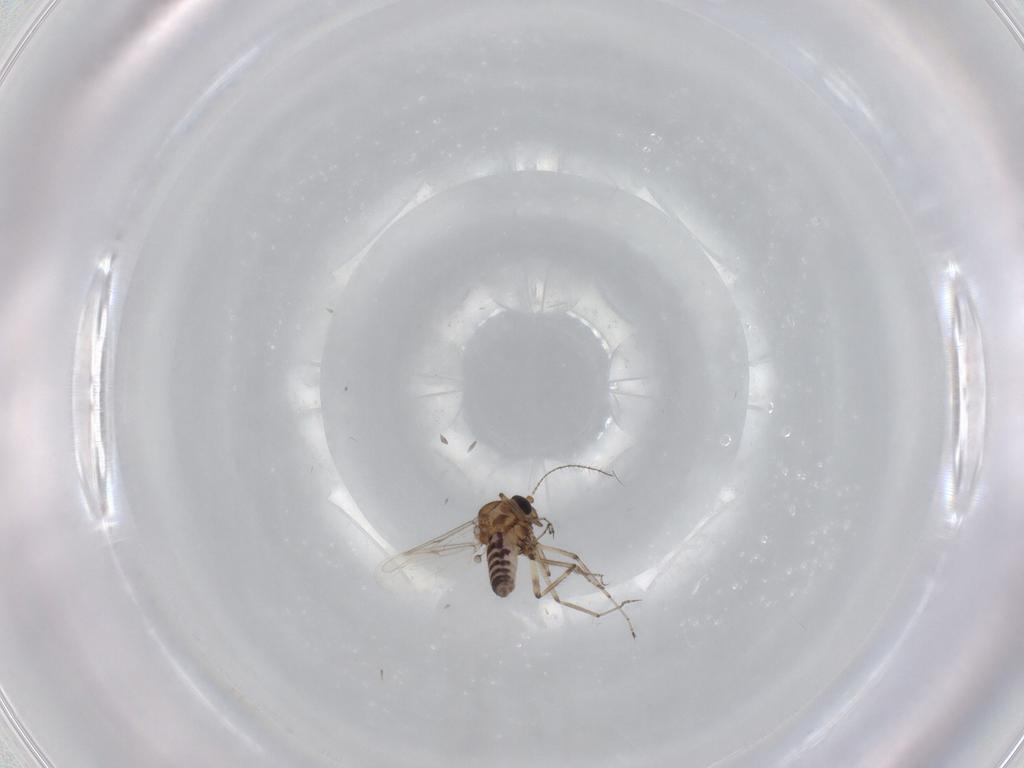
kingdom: Animalia
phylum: Arthropoda
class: Insecta
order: Diptera
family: Ceratopogonidae
